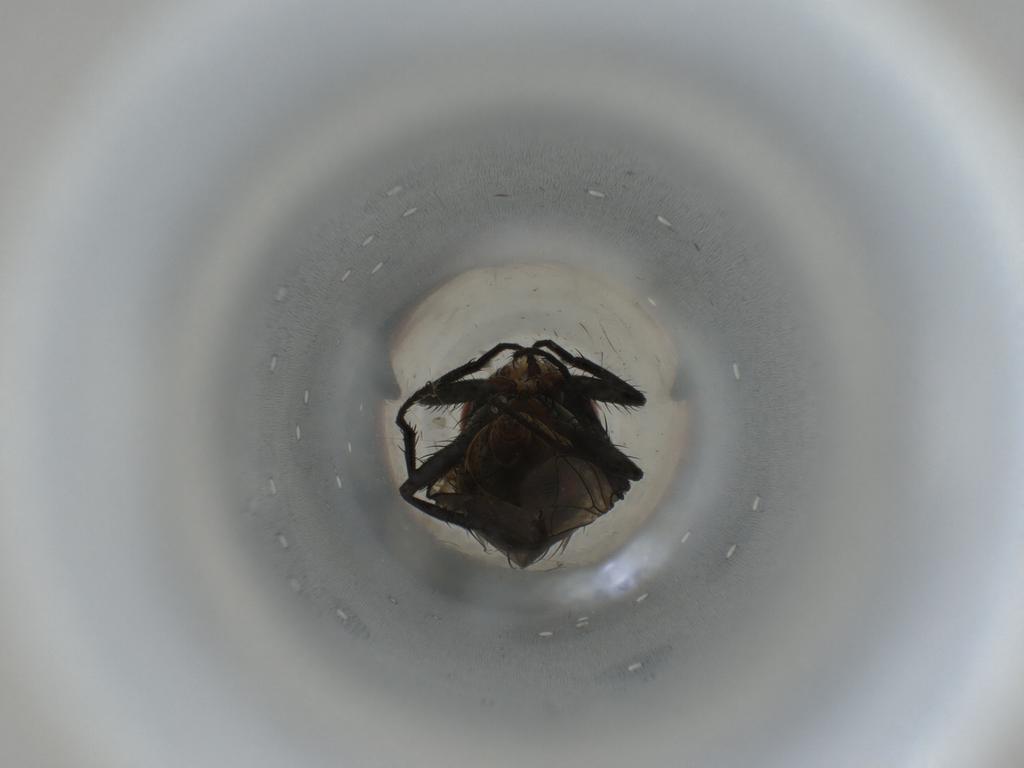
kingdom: Animalia
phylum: Arthropoda
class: Insecta
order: Diptera
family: Sarcophagidae
